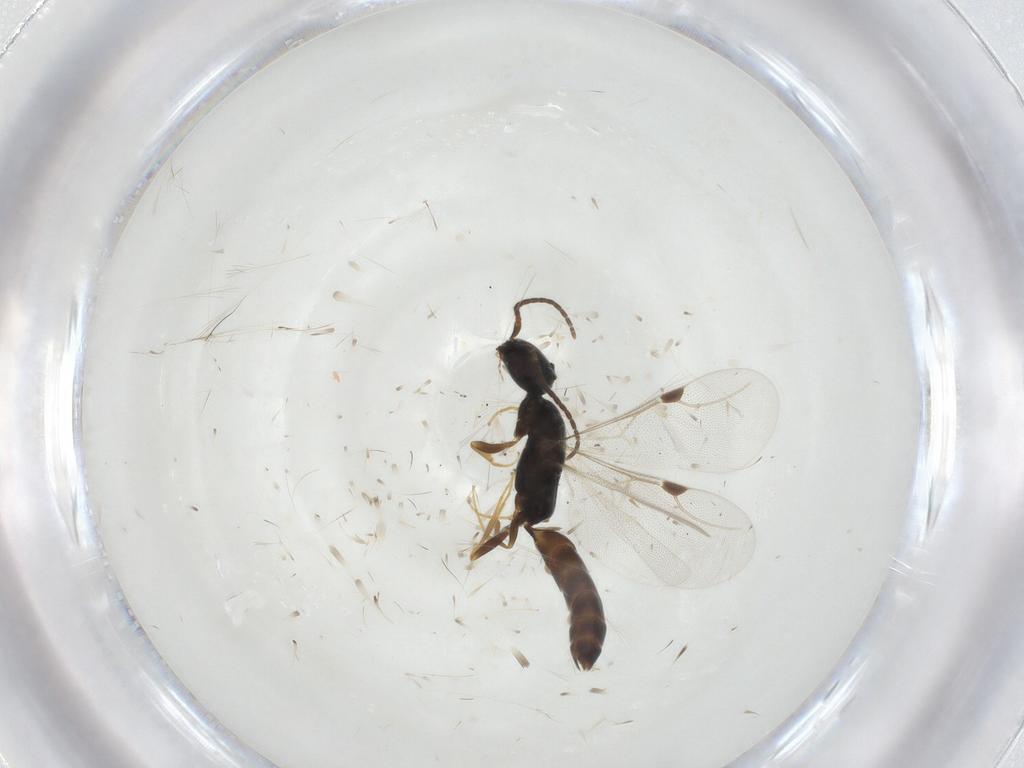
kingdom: Animalia
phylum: Arthropoda
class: Insecta
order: Hymenoptera
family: Bethylidae
